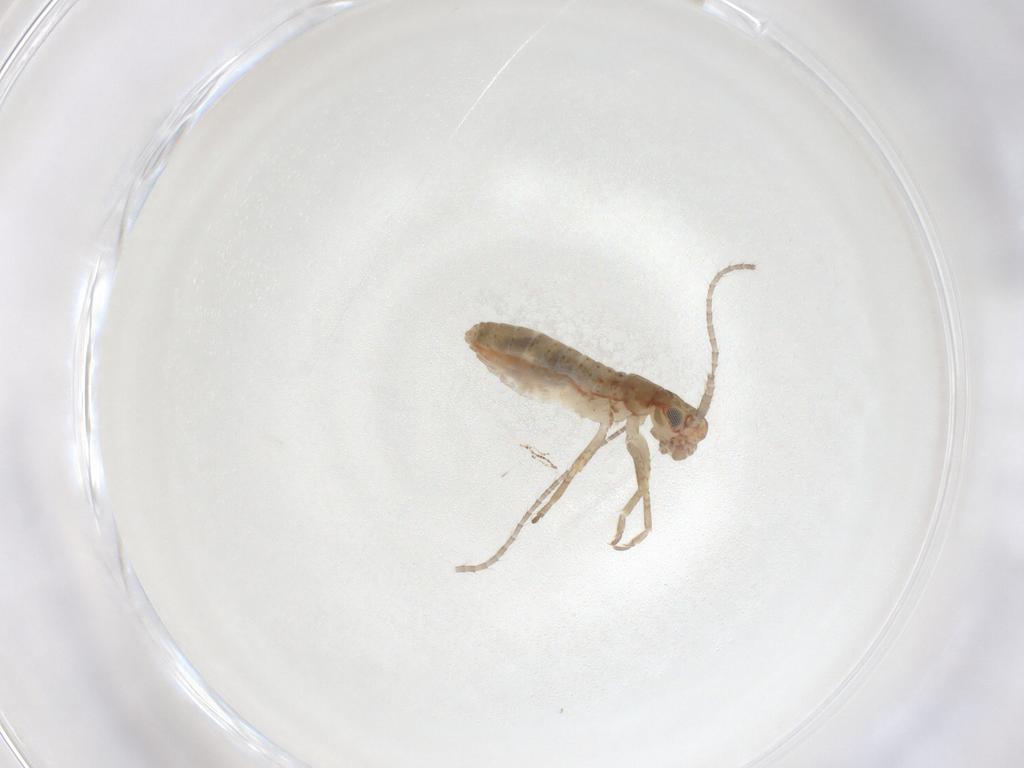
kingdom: Animalia
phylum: Arthropoda
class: Insecta
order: Orthoptera
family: Mogoplistidae
